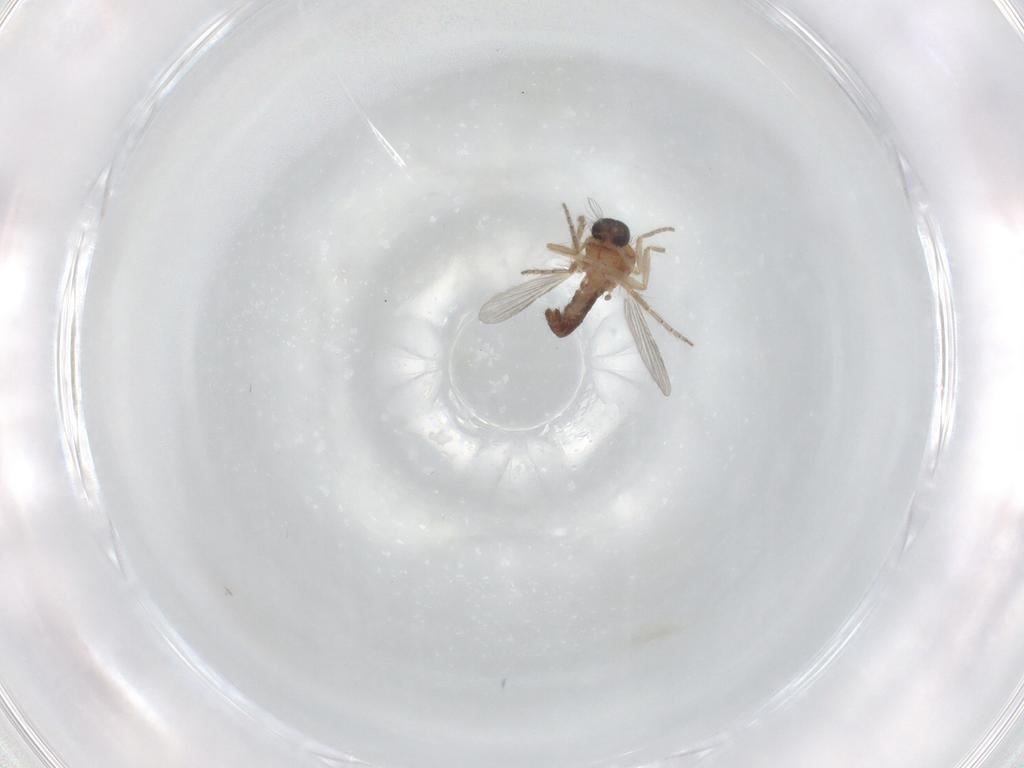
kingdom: Animalia
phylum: Arthropoda
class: Insecta
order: Diptera
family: Ceratopogonidae
